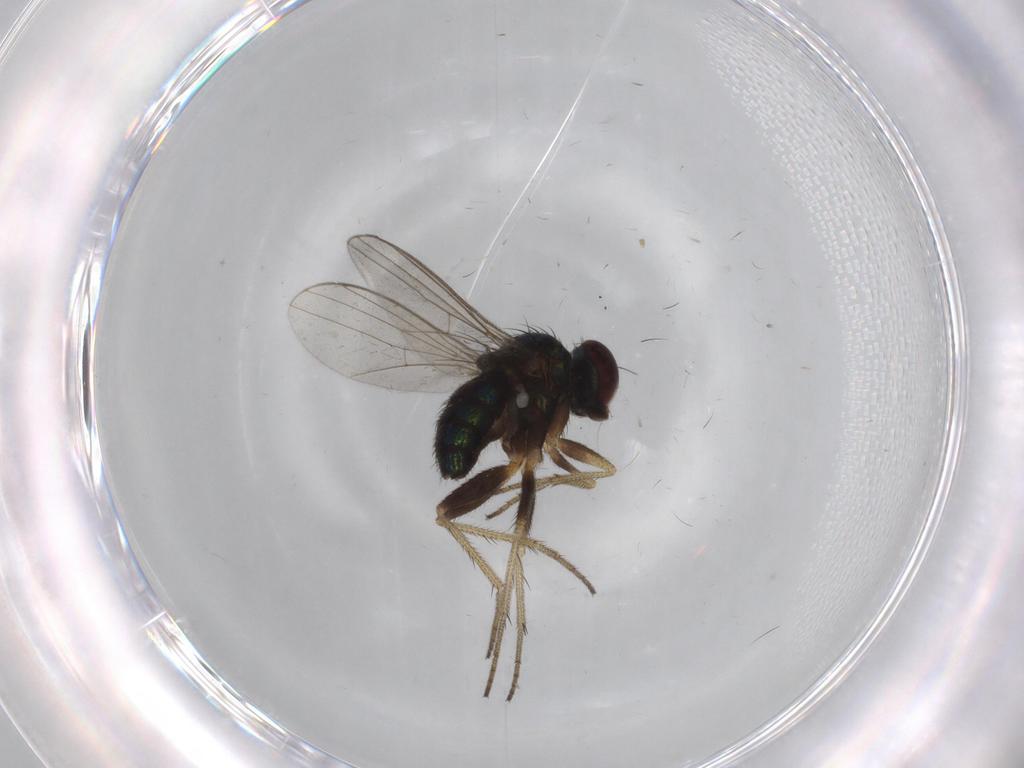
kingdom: Animalia
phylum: Arthropoda
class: Insecta
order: Diptera
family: Dolichopodidae
